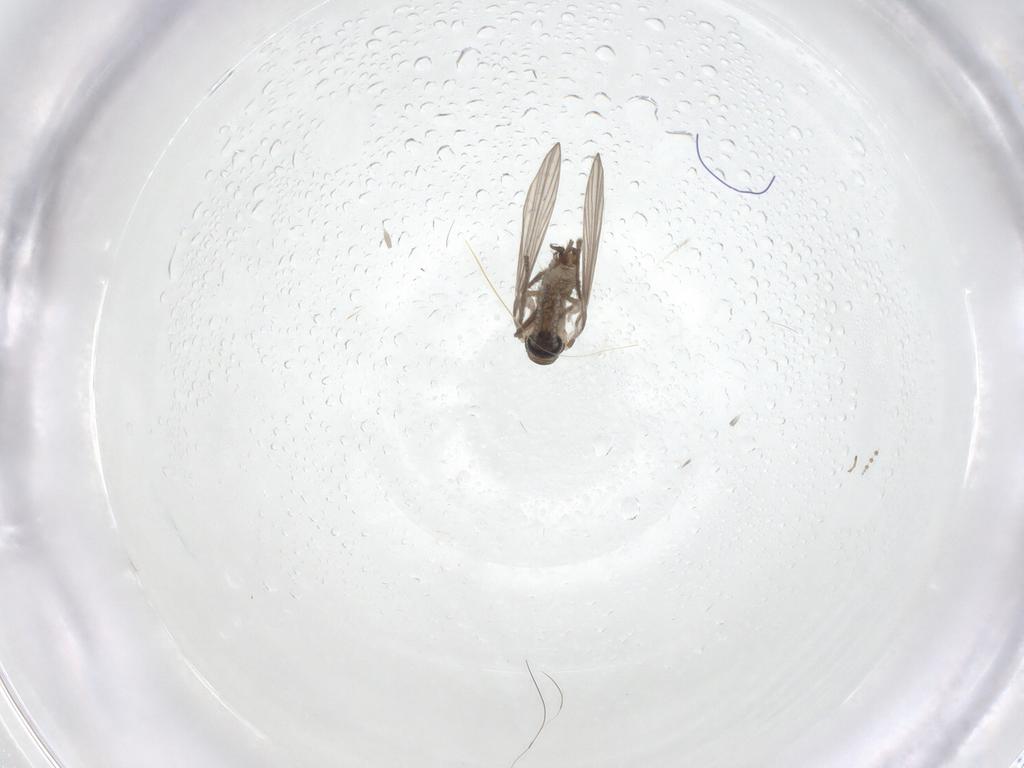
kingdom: Animalia
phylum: Arthropoda
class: Insecta
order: Diptera
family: Psychodidae
